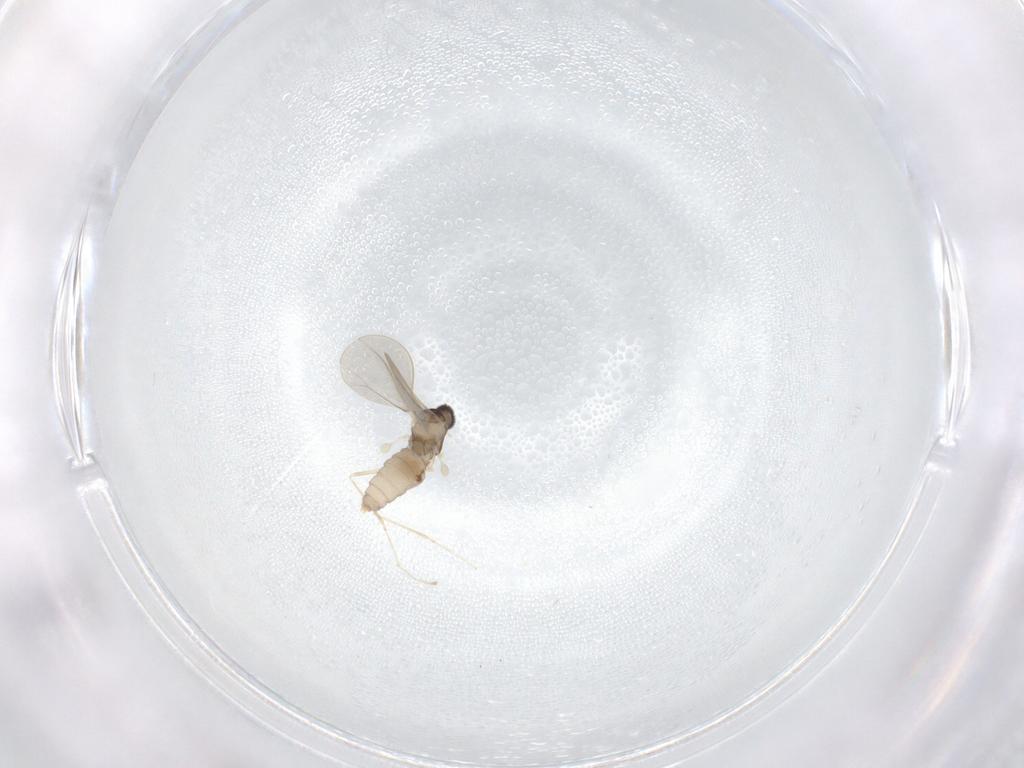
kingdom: Animalia
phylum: Arthropoda
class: Insecta
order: Diptera
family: Cecidomyiidae
